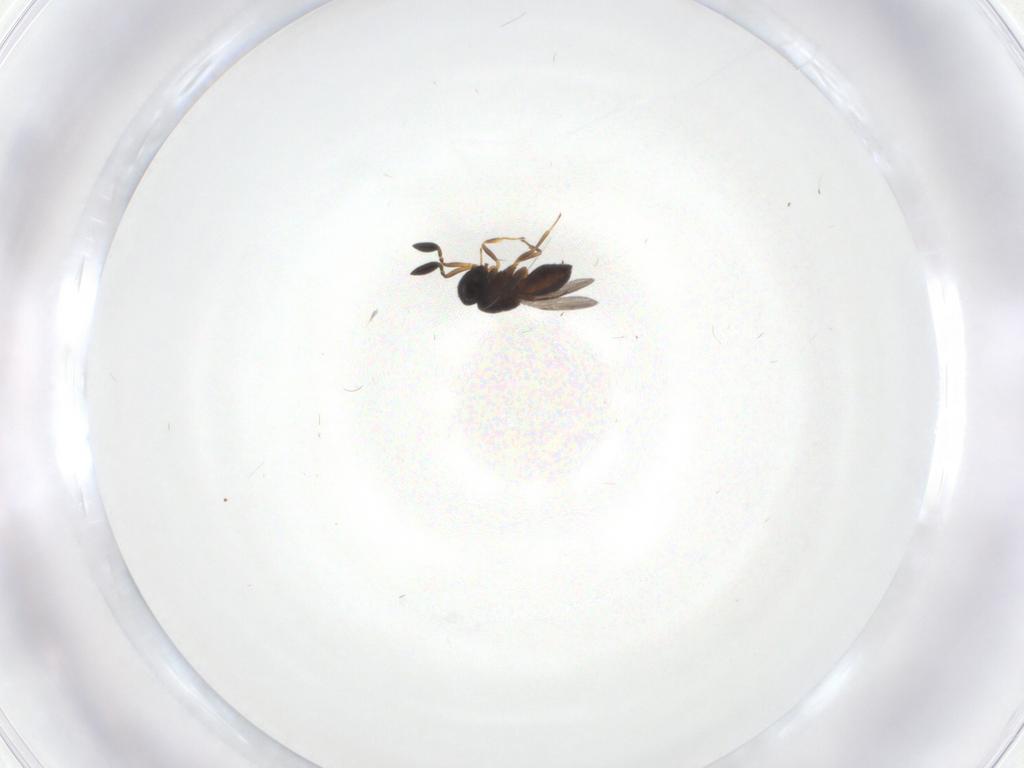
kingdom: Animalia
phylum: Arthropoda
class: Insecta
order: Hymenoptera
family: Scelionidae
